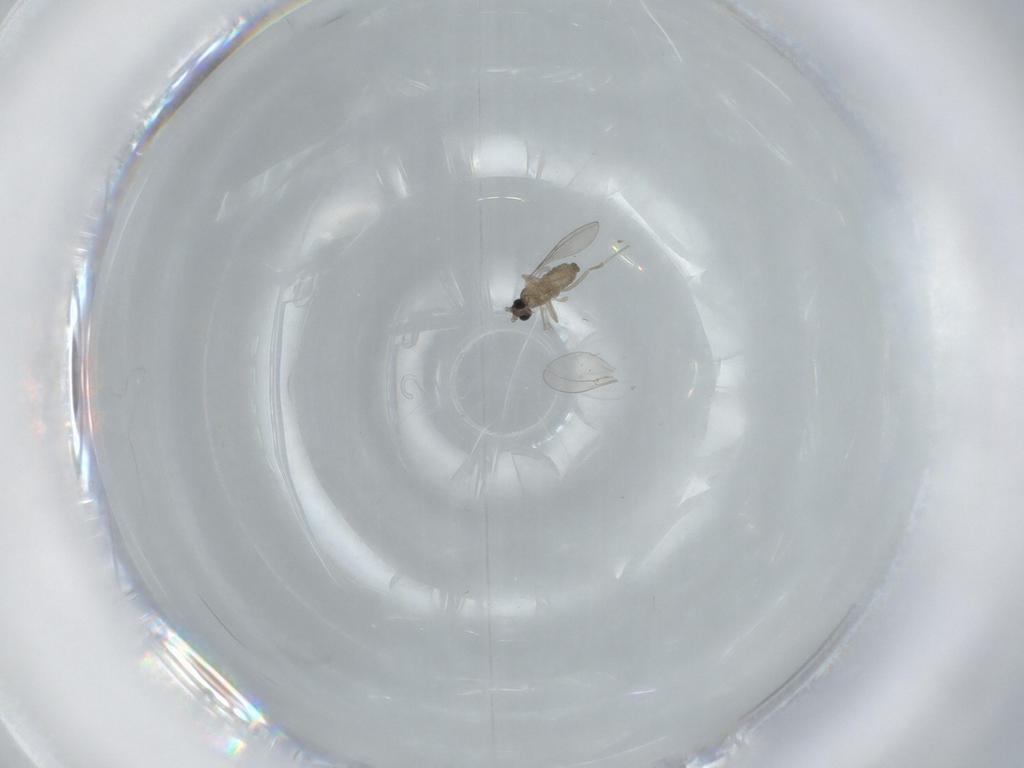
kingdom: Animalia
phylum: Arthropoda
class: Insecta
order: Diptera
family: Cecidomyiidae
